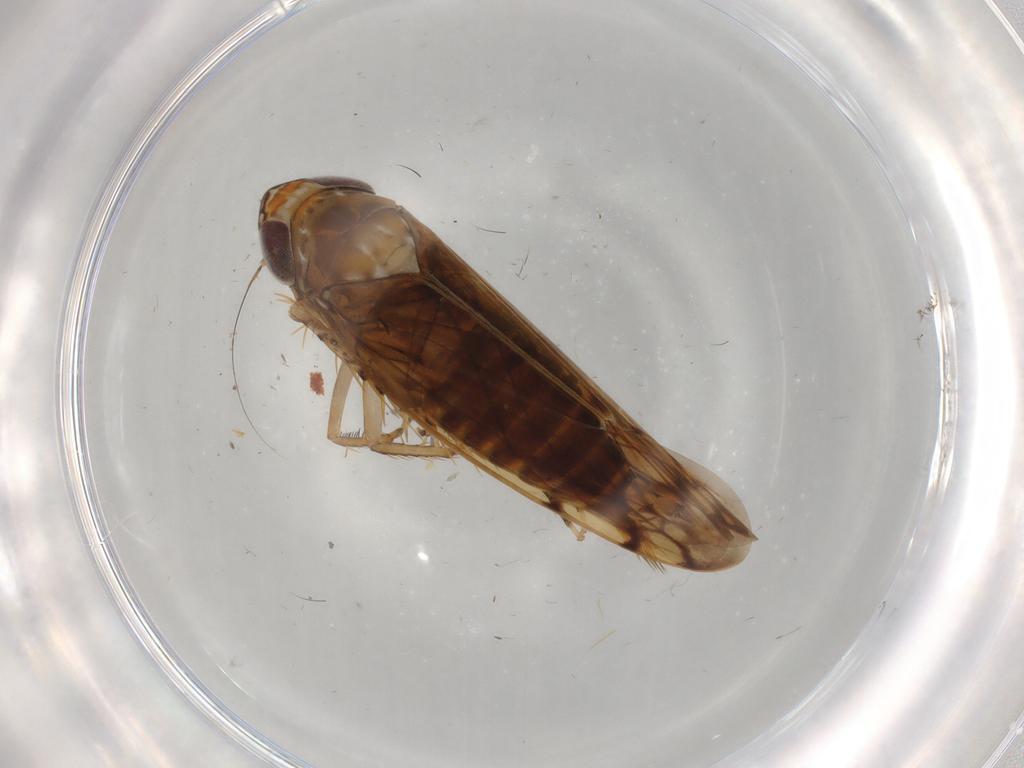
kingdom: Animalia
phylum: Arthropoda
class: Insecta
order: Hemiptera
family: Cicadellidae
